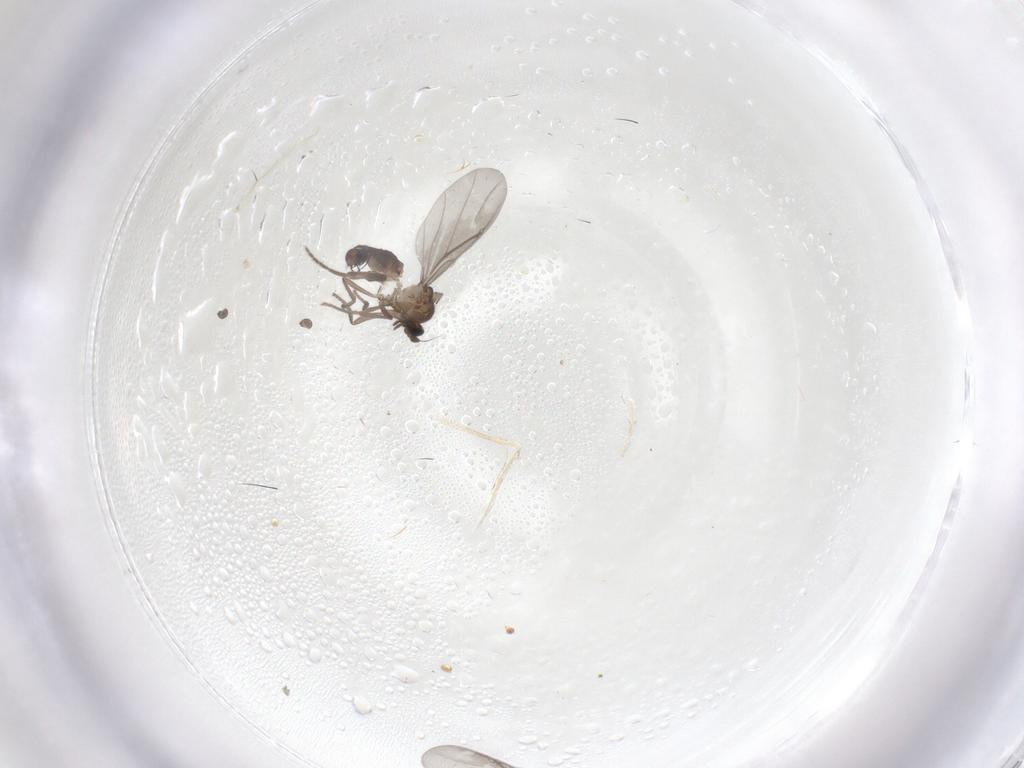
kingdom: Animalia
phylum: Arthropoda
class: Insecta
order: Diptera
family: Phoridae
